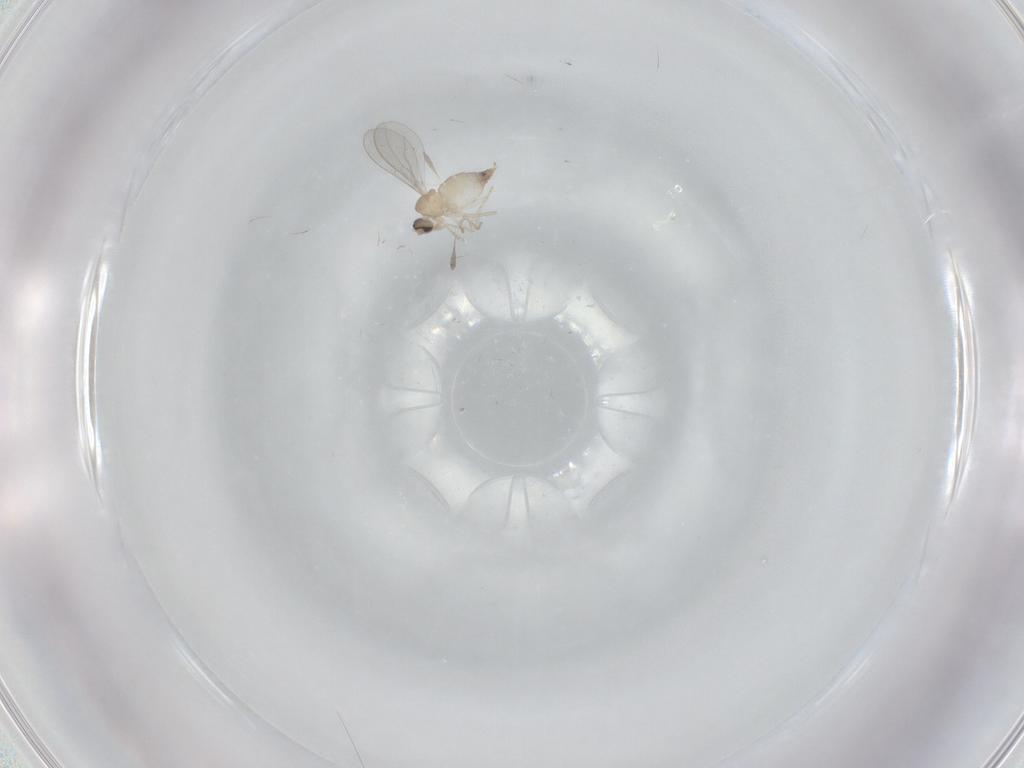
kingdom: Animalia
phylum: Arthropoda
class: Insecta
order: Diptera
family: Cecidomyiidae
